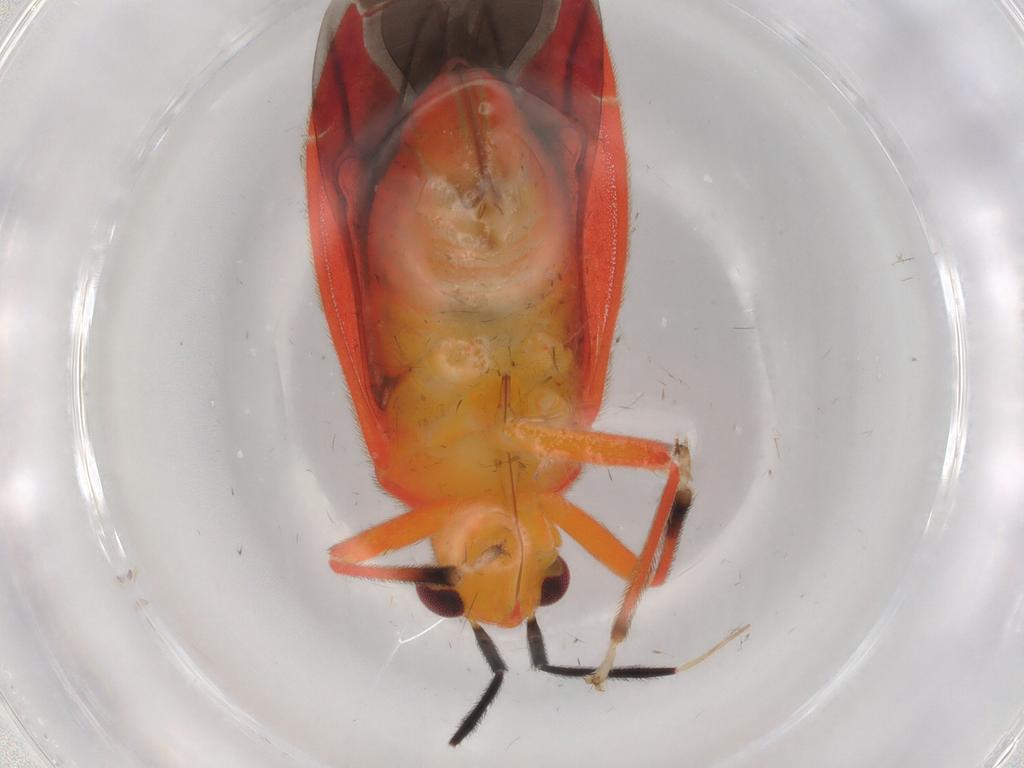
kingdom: Animalia
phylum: Arthropoda
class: Insecta
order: Hemiptera
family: Miridae
